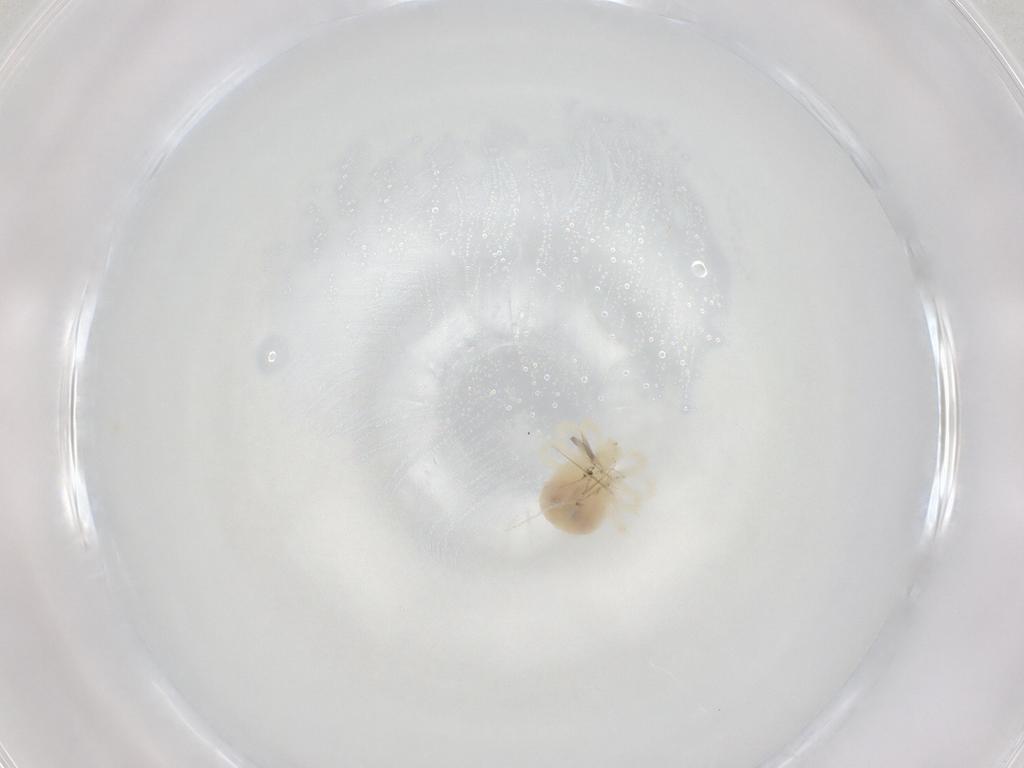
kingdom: Animalia
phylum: Arthropoda
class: Arachnida
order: Trombidiformes
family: Anystidae
